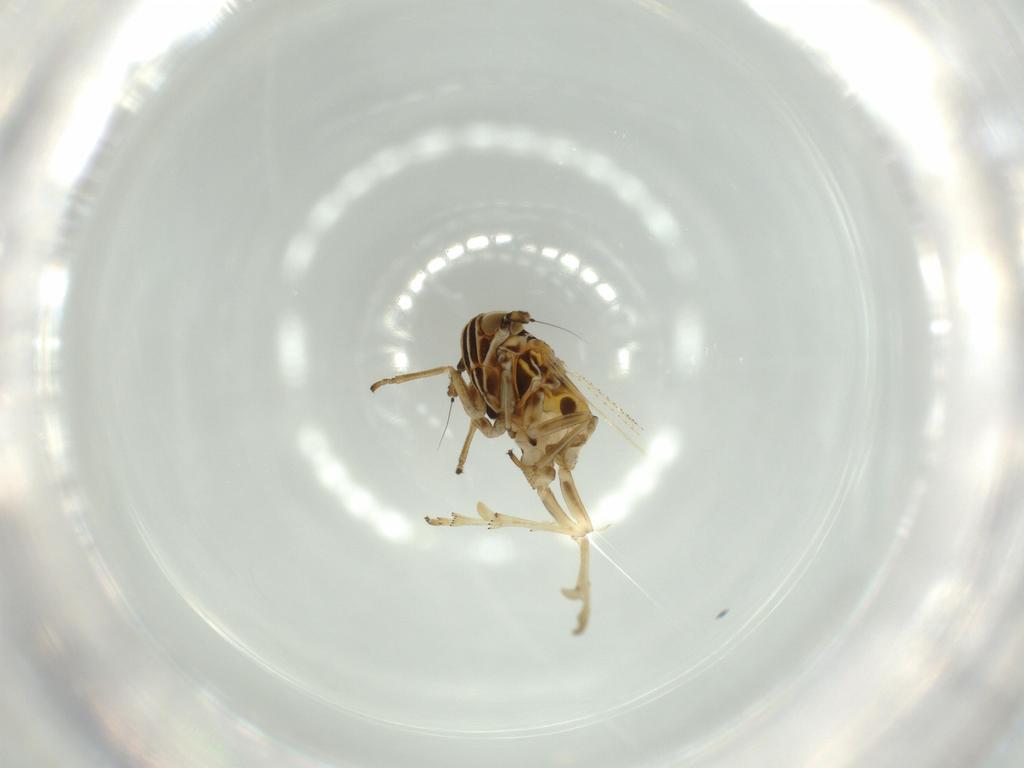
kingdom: Animalia
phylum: Arthropoda
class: Insecta
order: Hemiptera
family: Delphacidae
